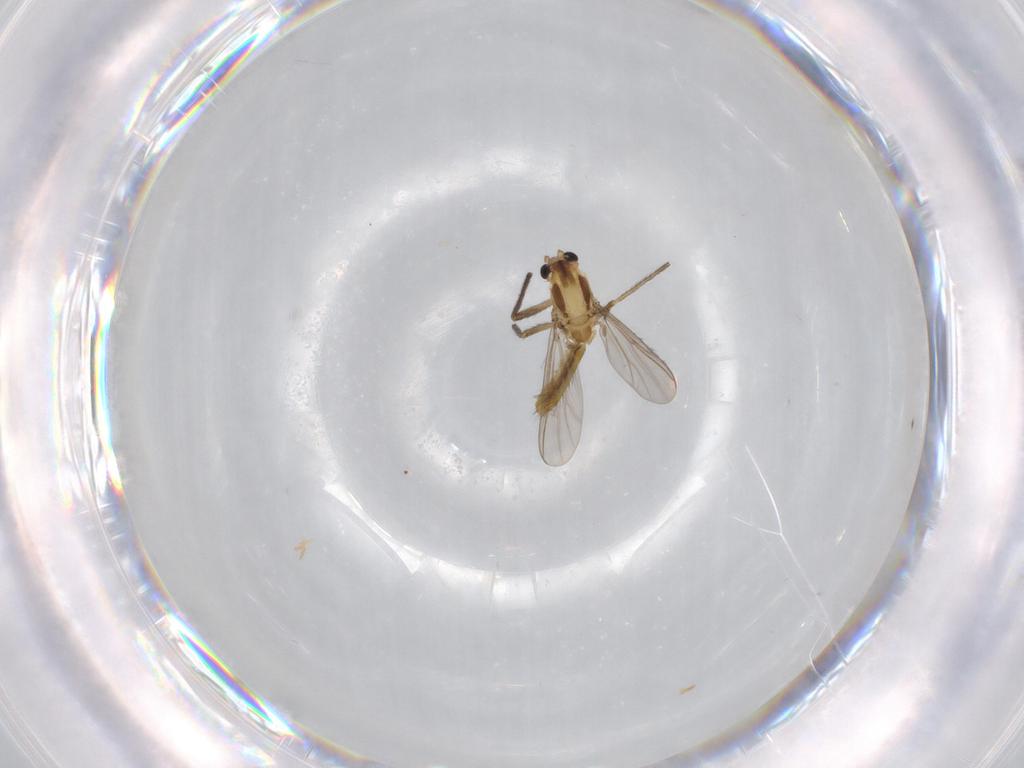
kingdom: Animalia
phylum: Arthropoda
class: Insecta
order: Diptera
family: Chironomidae
